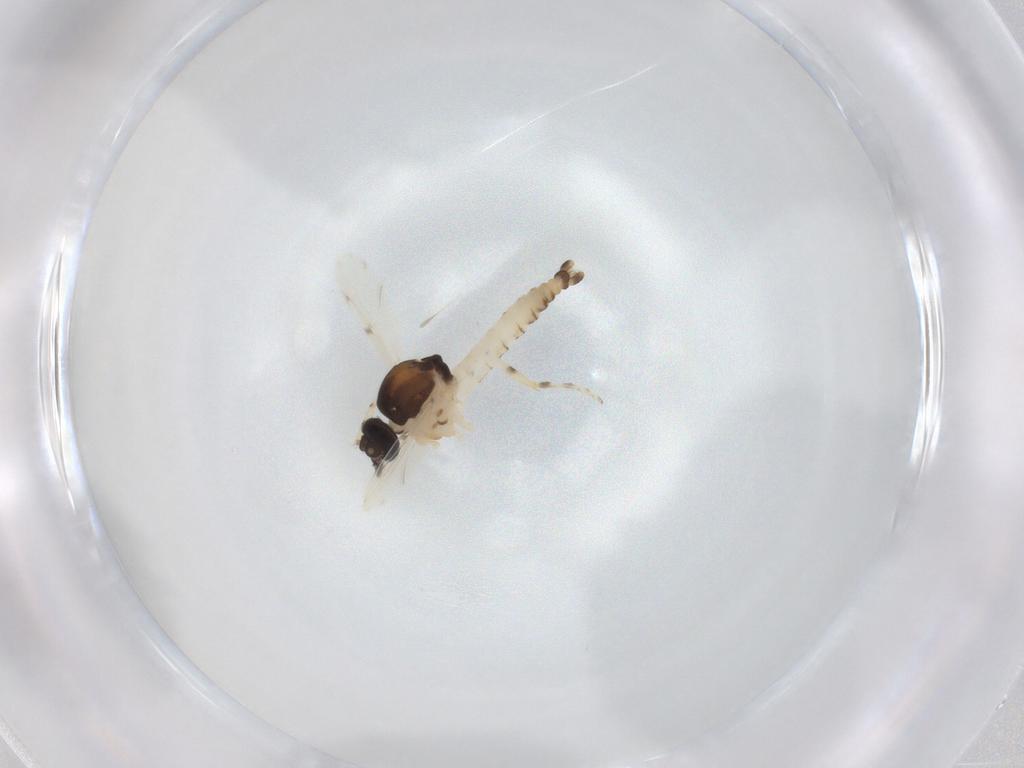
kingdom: Animalia
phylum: Arthropoda
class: Insecta
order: Diptera
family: Ceratopogonidae
